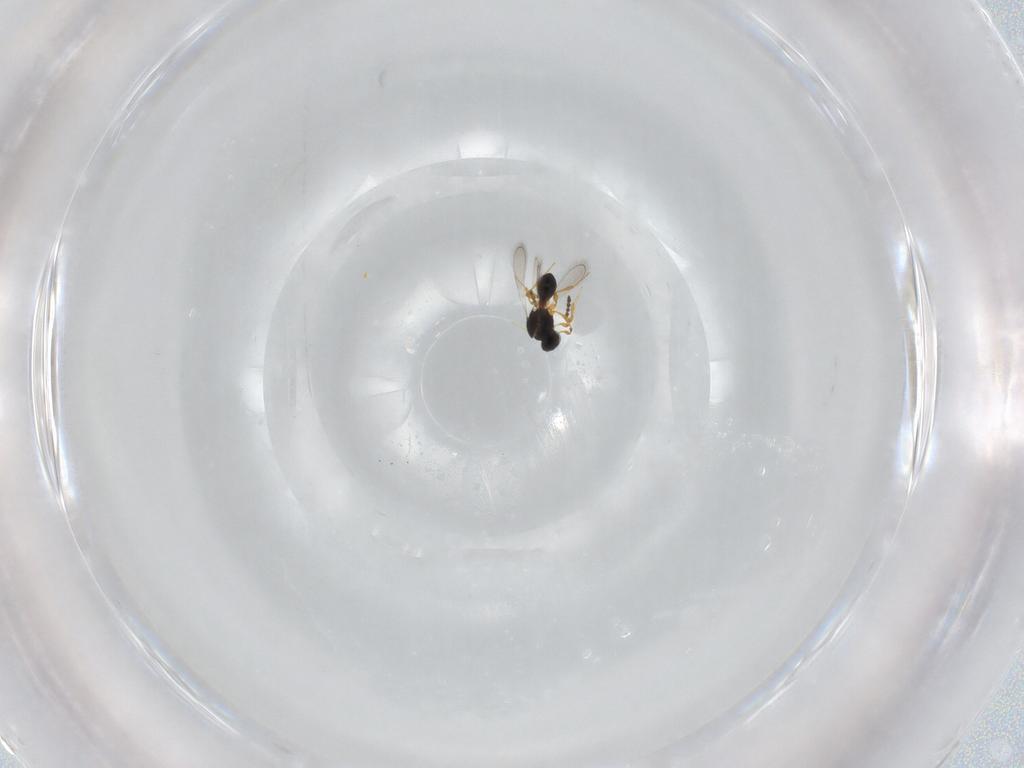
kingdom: Animalia
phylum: Arthropoda
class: Insecta
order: Hymenoptera
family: Platygastridae
